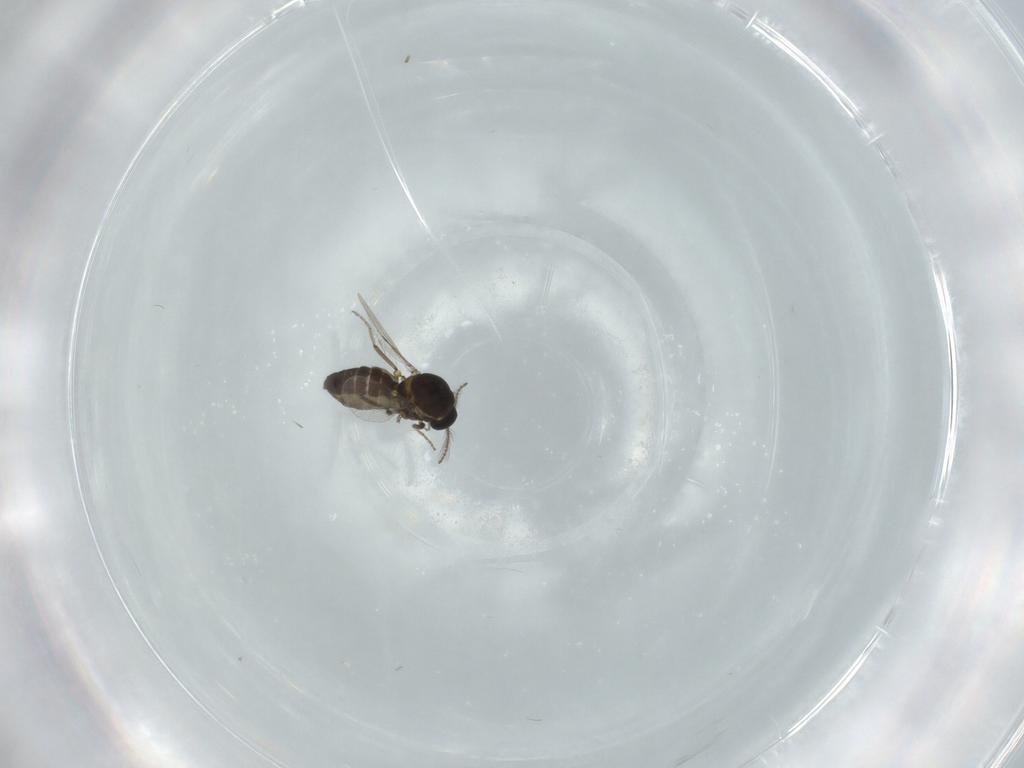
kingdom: Animalia
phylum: Arthropoda
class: Insecta
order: Diptera
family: Ceratopogonidae
